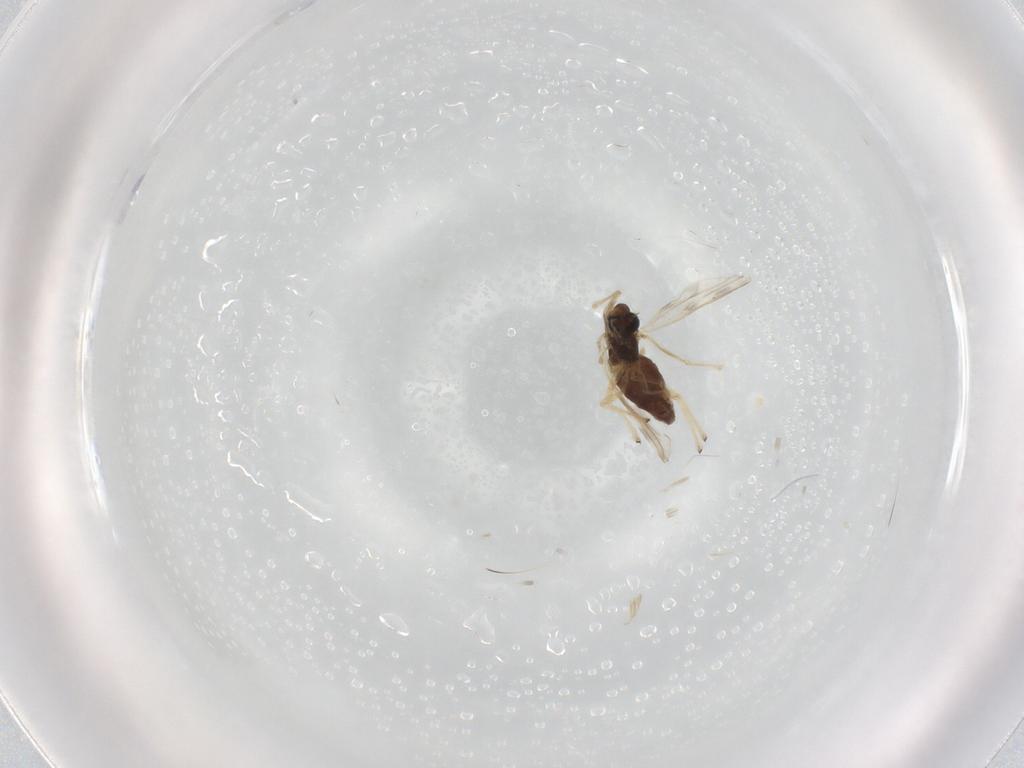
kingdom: Animalia
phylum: Arthropoda
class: Insecta
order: Diptera
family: Chironomidae
